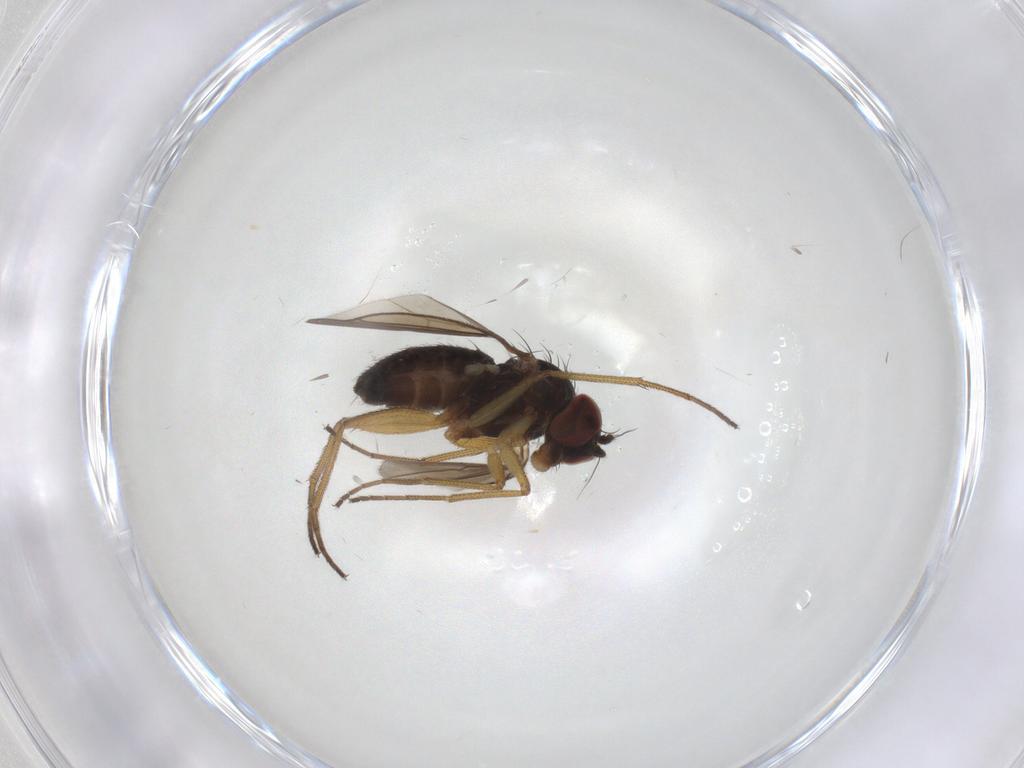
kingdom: Animalia
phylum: Arthropoda
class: Insecta
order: Diptera
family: Dolichopodidae
